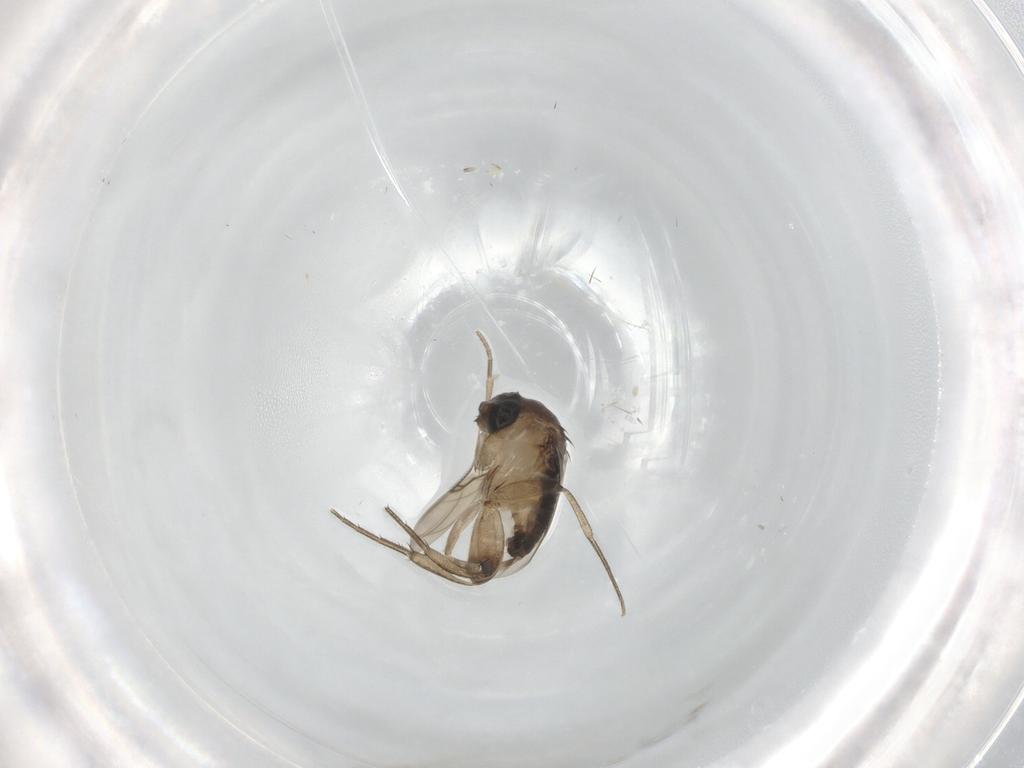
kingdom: Animalia
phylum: Arthropoda
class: Insecta
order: Diptera
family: Phoridae
